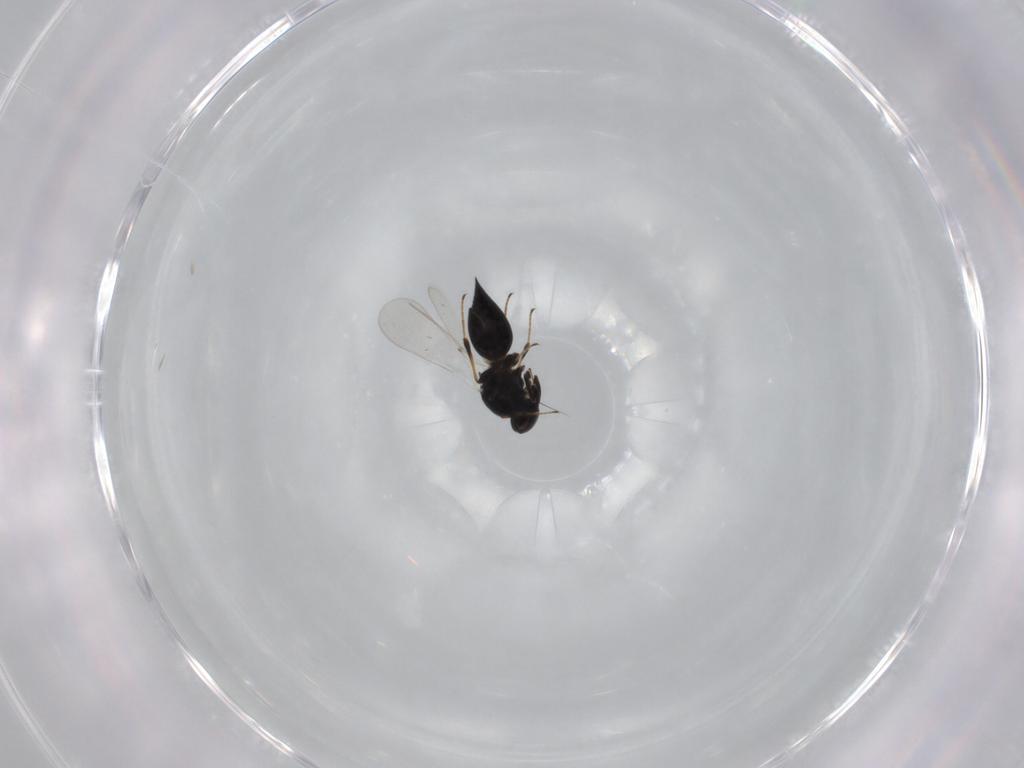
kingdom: Animalia
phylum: Arthropoda
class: Insecta
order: Hymenoptera
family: Platygastridae
